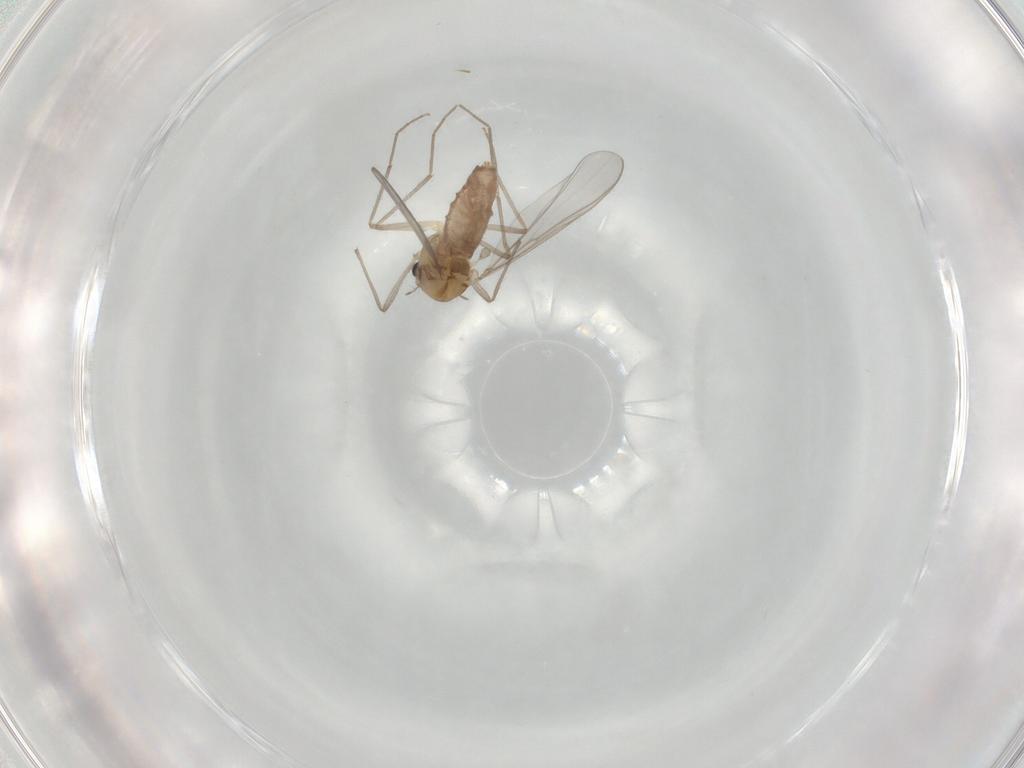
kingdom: Animalia
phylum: Arthropoda
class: Insecta
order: Diptera
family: Chironomidae
